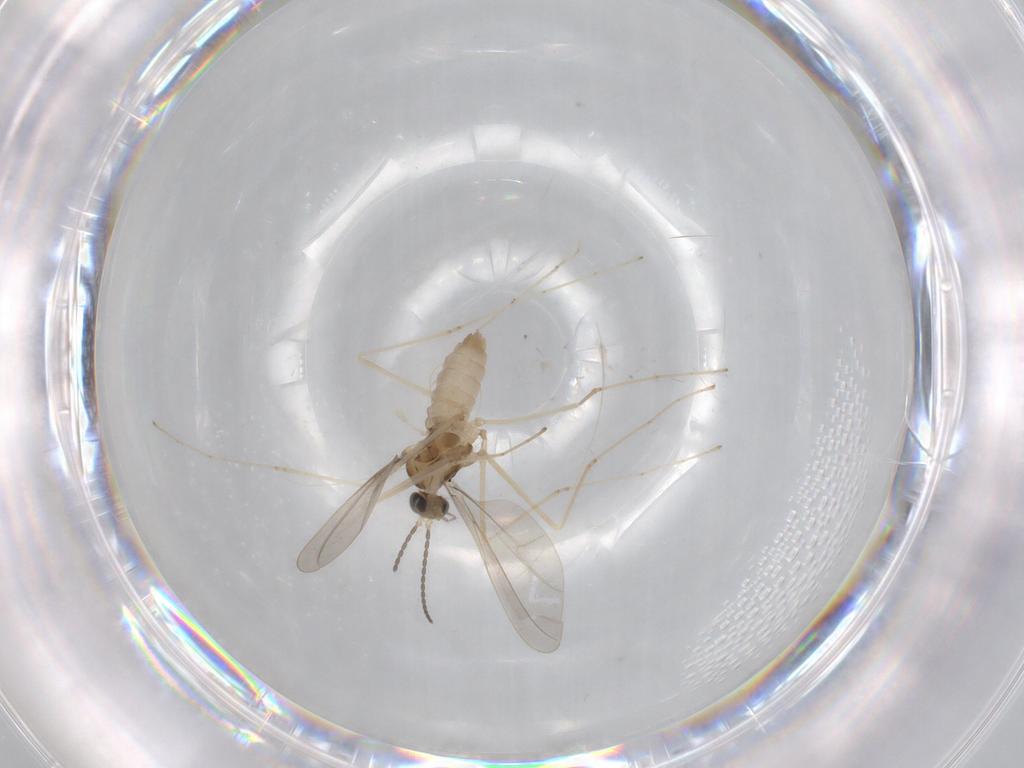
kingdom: Animalia
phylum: Arthropoda
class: Insecta
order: Diptera
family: Cecidomyiidae
